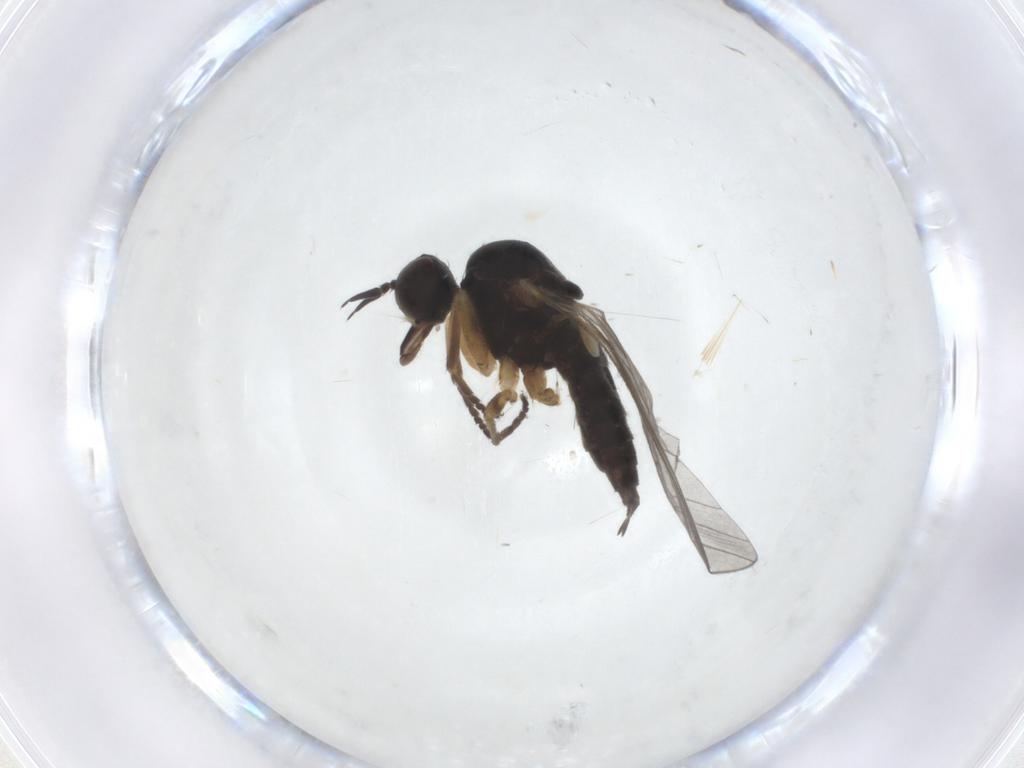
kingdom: Animalia
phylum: Arthropoda
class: Insecta
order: Diptera
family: Empididae
